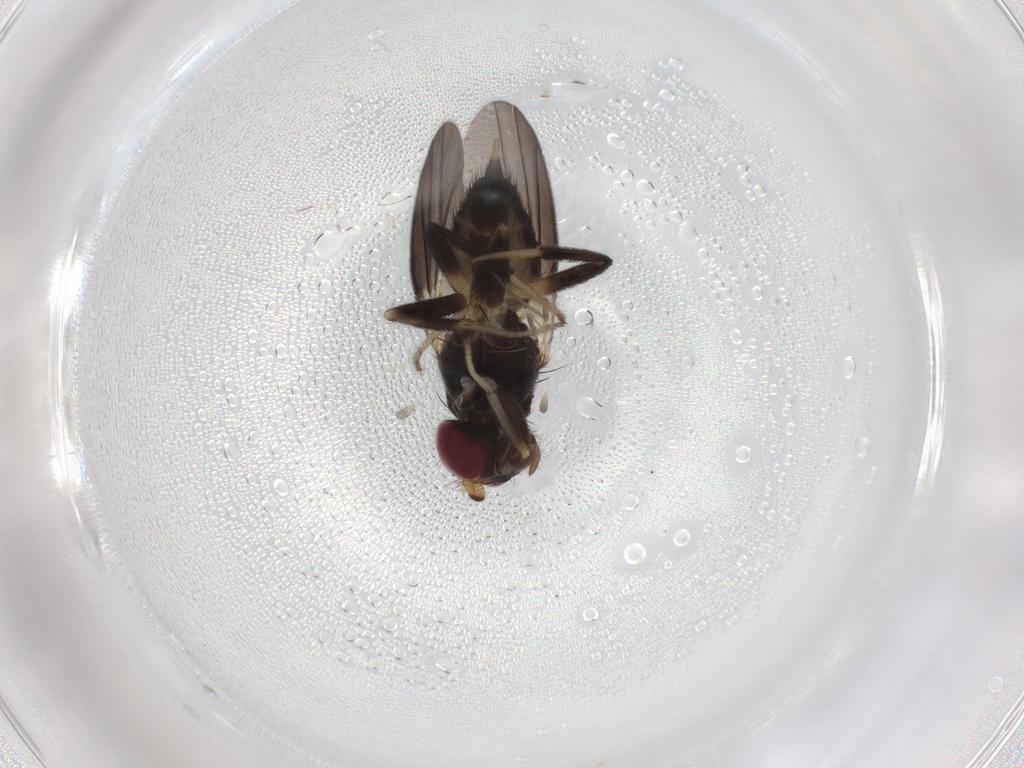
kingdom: Animalia
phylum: Arthropoda
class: Insecta
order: Diptera
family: Clusiidae
